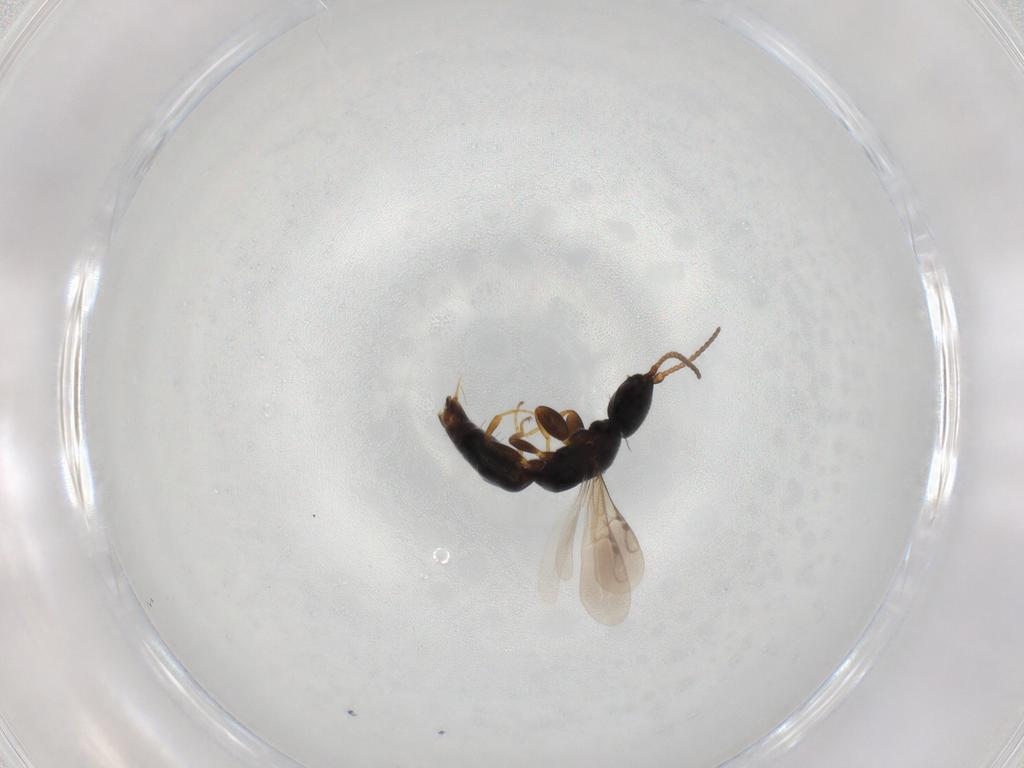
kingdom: Animalia
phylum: Arthropoda
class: Insecta
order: Hymenoptera
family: Bethylidae
